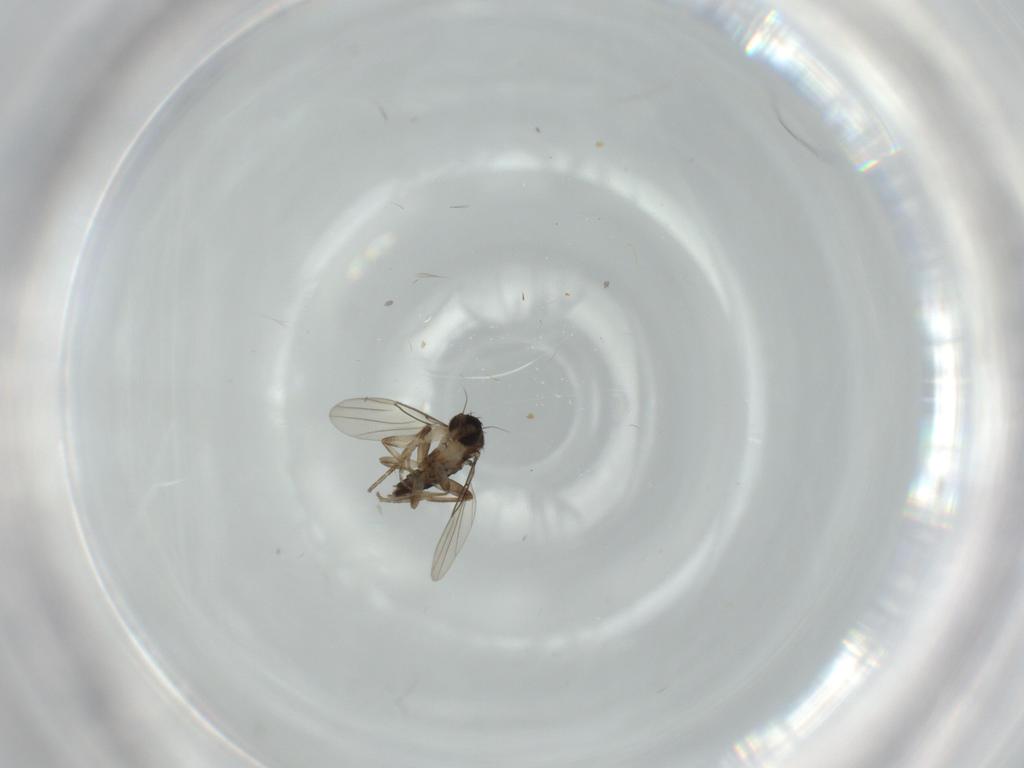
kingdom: Animalia
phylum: Arthropoda
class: Insecta
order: Diptera
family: Phoridae
